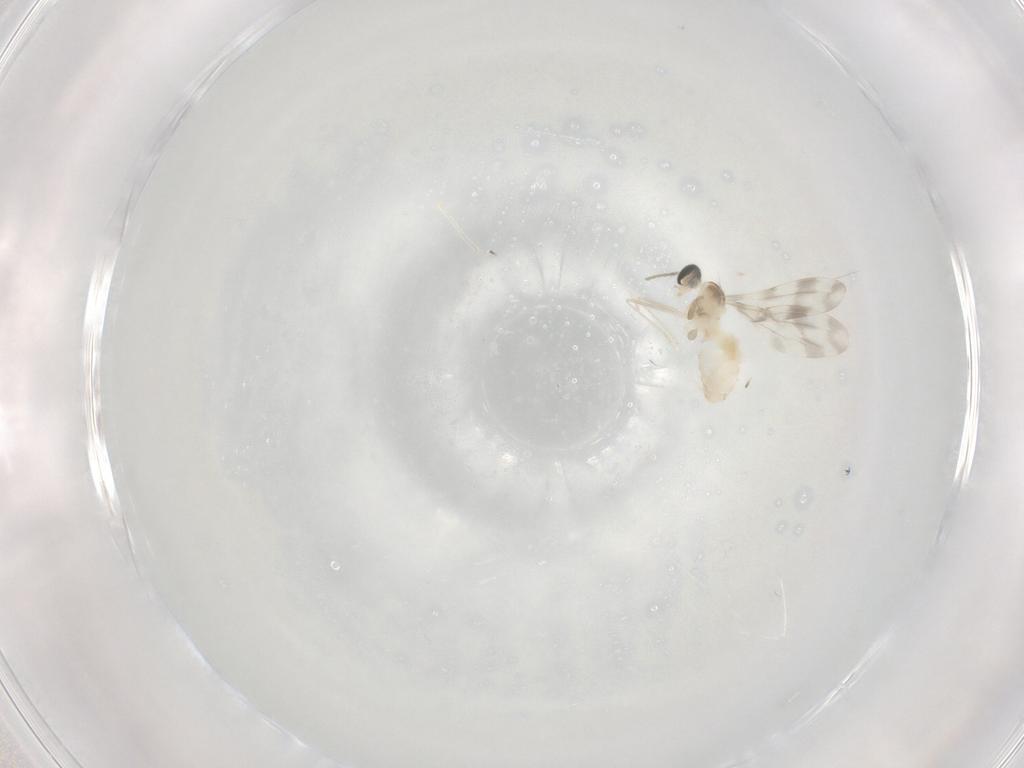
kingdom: Animalia
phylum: Arthropoda
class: Insecta
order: Diptera
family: Cecidomyiidae
